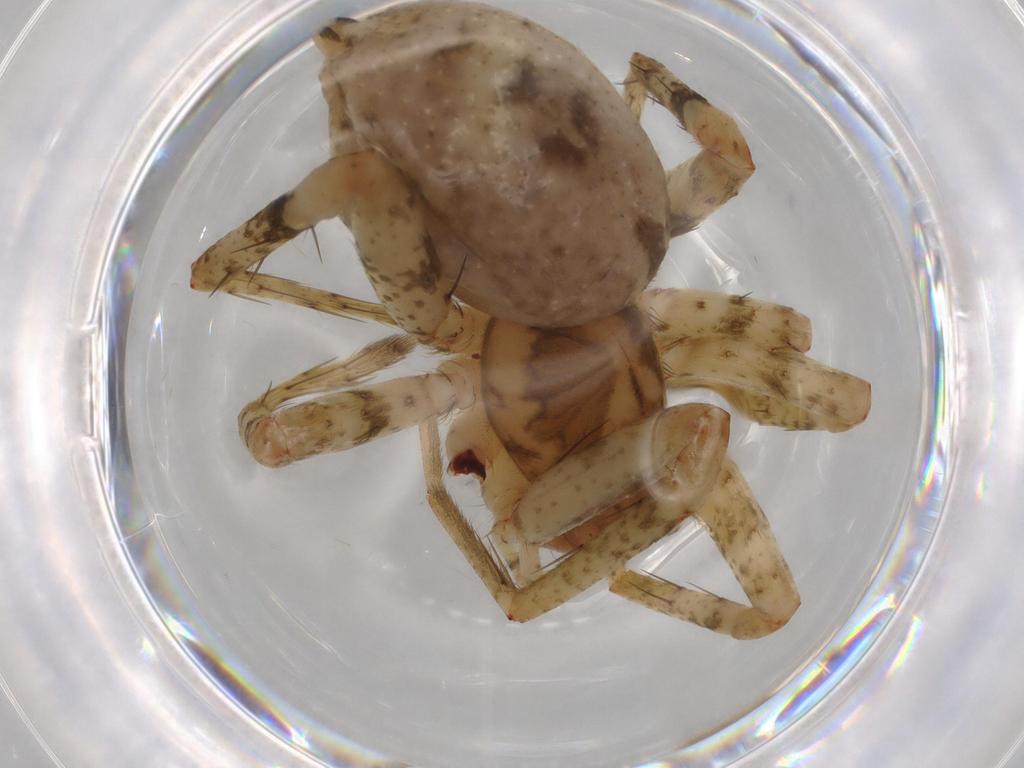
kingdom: Animalia
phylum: Arthropoda
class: Arachnida
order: Araneae
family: Anyphaenidae
